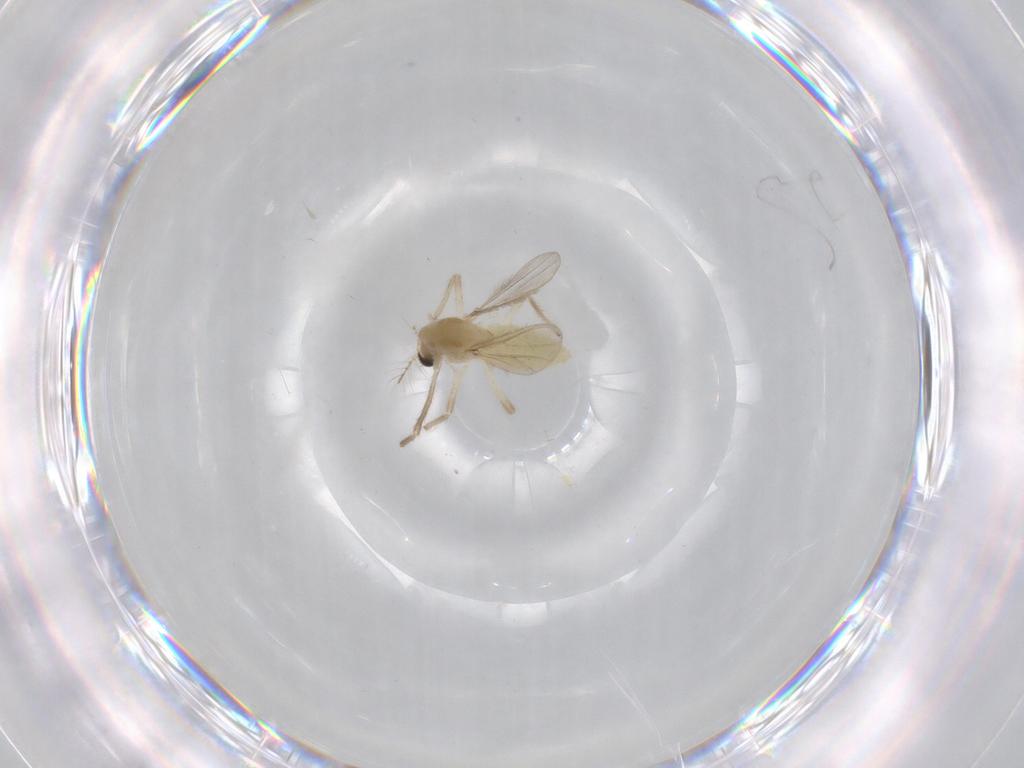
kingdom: Animalia
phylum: Arthropoda
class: Insecta
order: Diptera
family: Chironomidae
